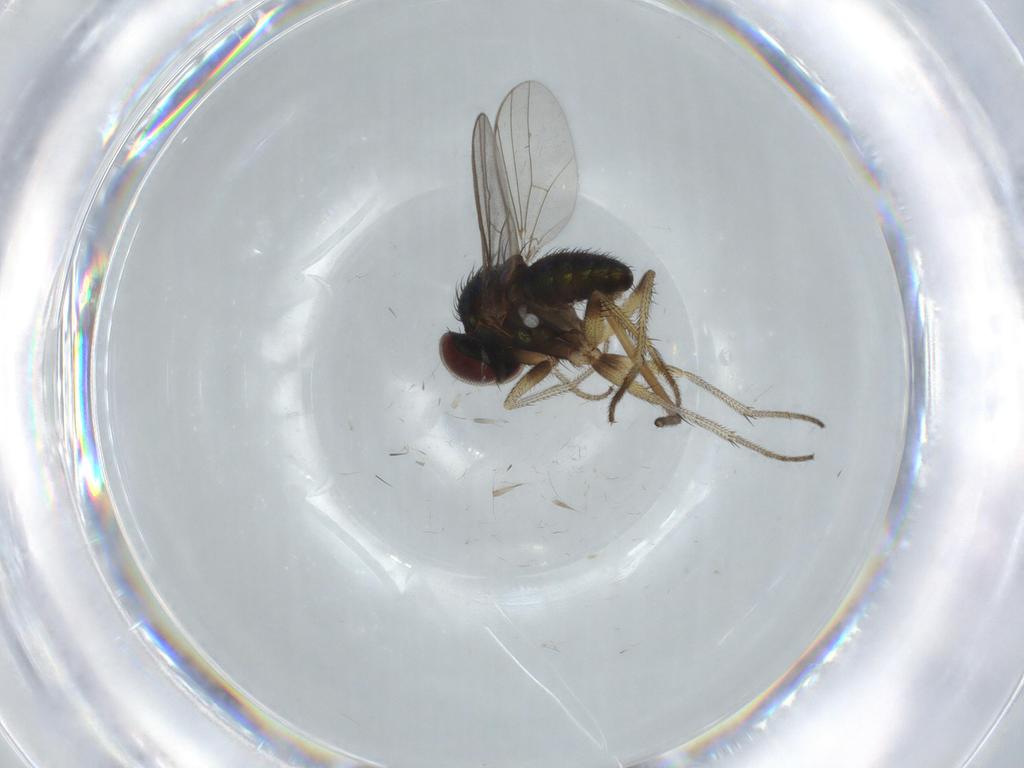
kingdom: Animalia
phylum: Arthropoda
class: Insecta
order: Diptera
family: Chironomidae
